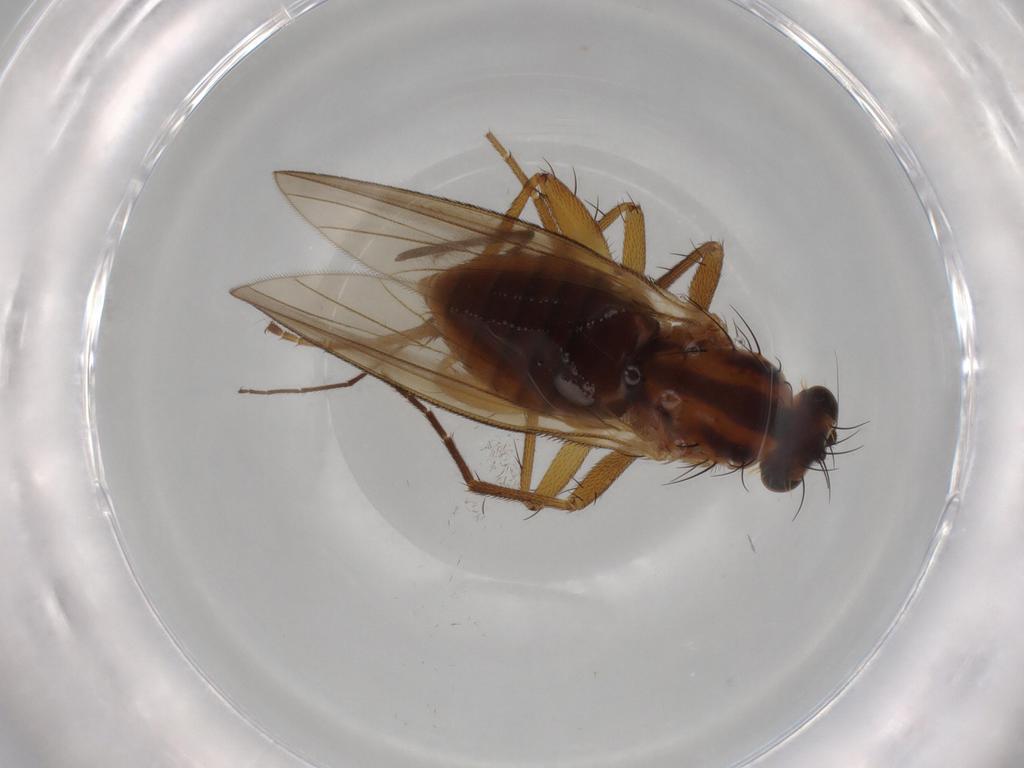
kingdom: Animalia
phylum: Arthropoda
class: Insecta
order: Diptera
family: Lonchopteridae
